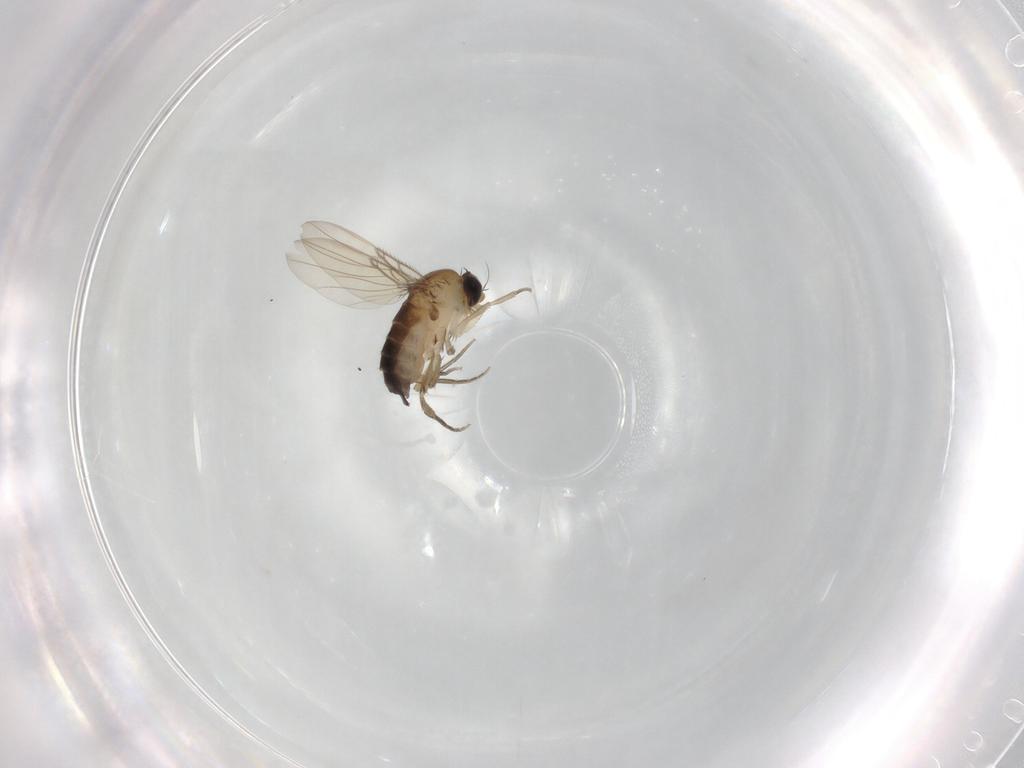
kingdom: Animalia
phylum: Arthropoda
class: Insecta
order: Diptera
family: Phoridae
